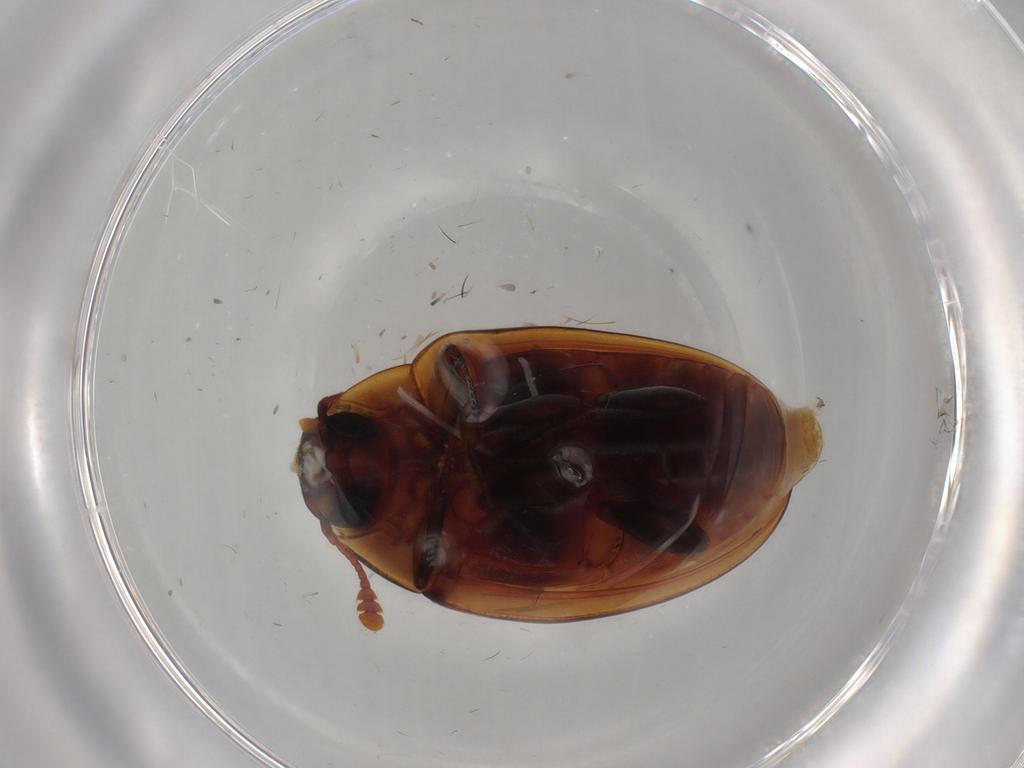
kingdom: Animalia
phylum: Arthropoda
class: Insecta
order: Coleoptera
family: Zopheridae
